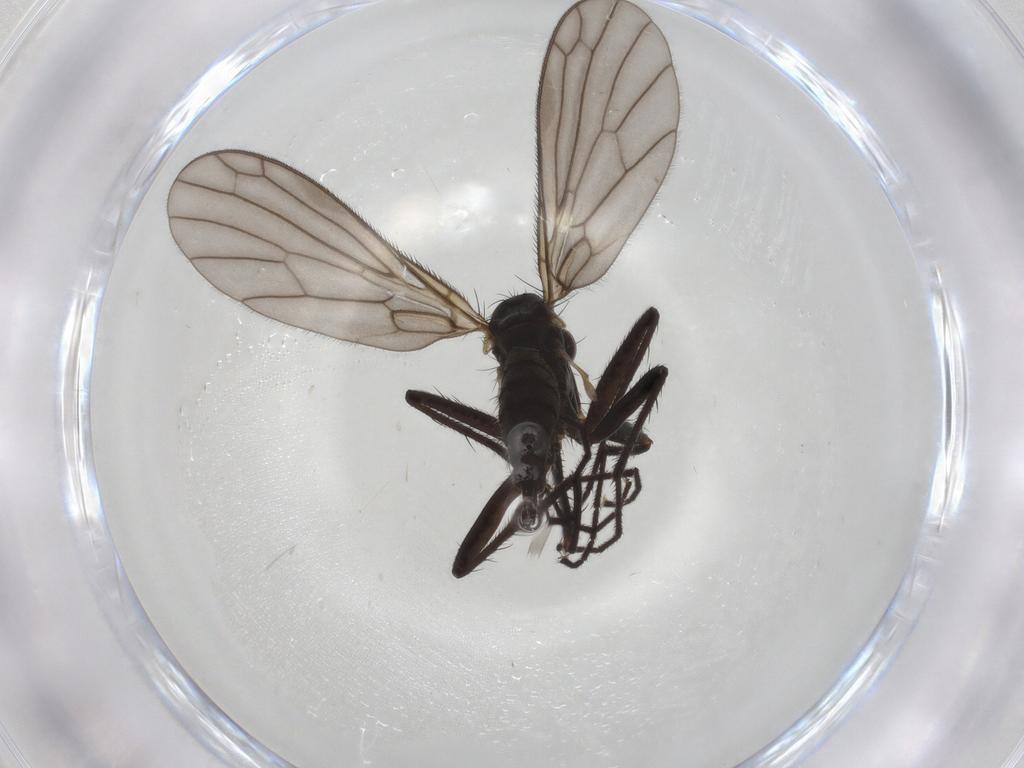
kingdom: Animalia
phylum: Arthropoda
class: Insecta
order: Diptera
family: Empididae
